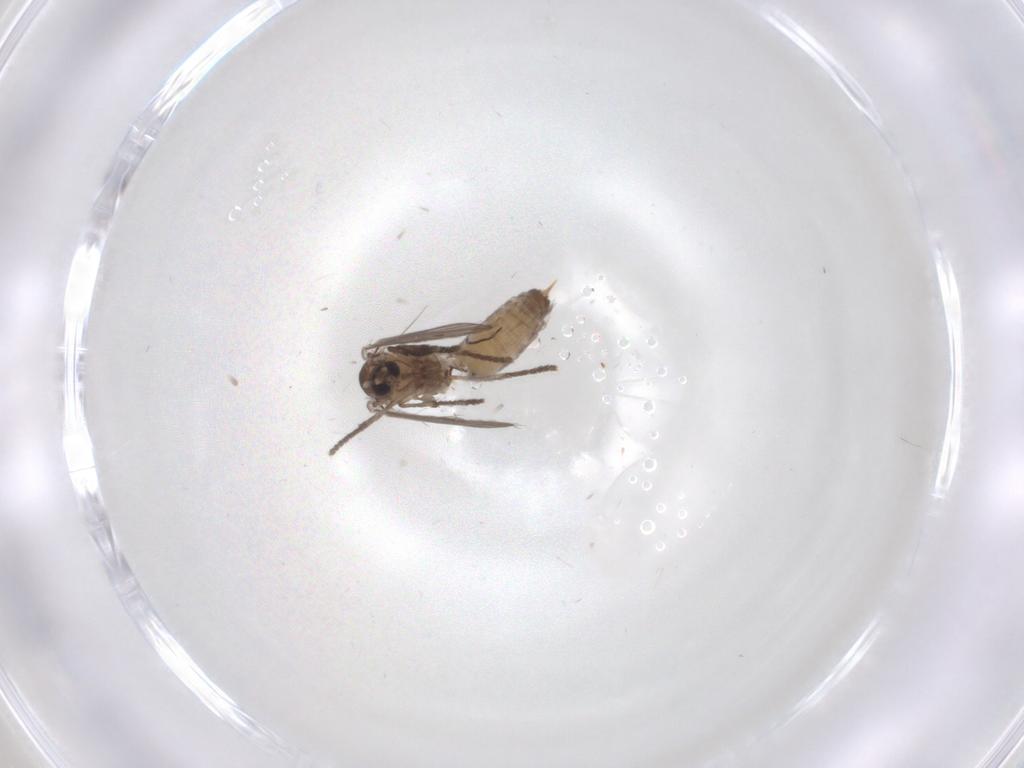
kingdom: Animalia
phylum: Arthropoda
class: Insecta
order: Diptera
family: Psychodidae
